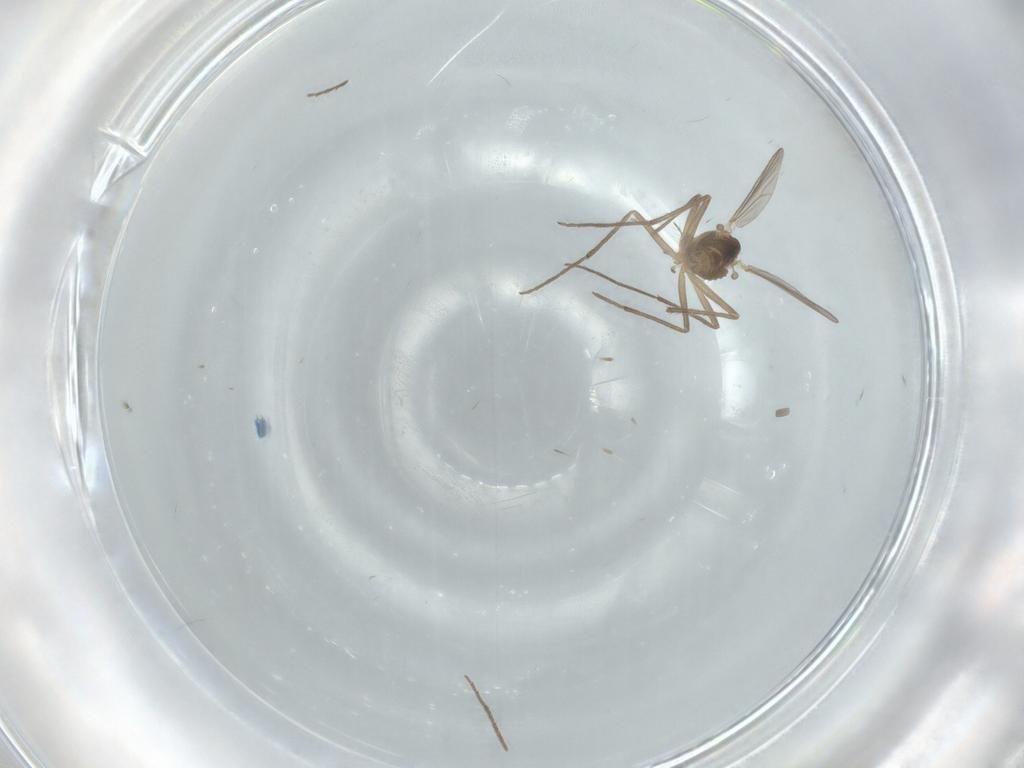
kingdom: Animalia
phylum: Arthropoda
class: Insecta
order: Diptera
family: Chironomidae
